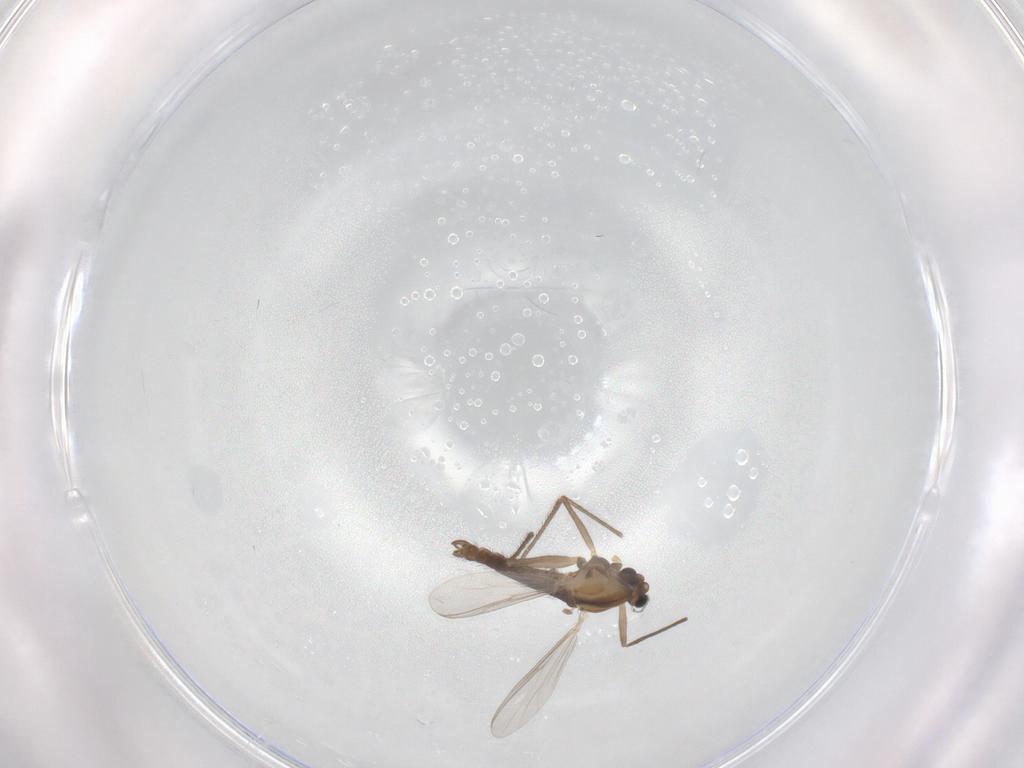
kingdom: Animalia
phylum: Arthropoda
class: Insecta
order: Diptera
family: Chironomidae
